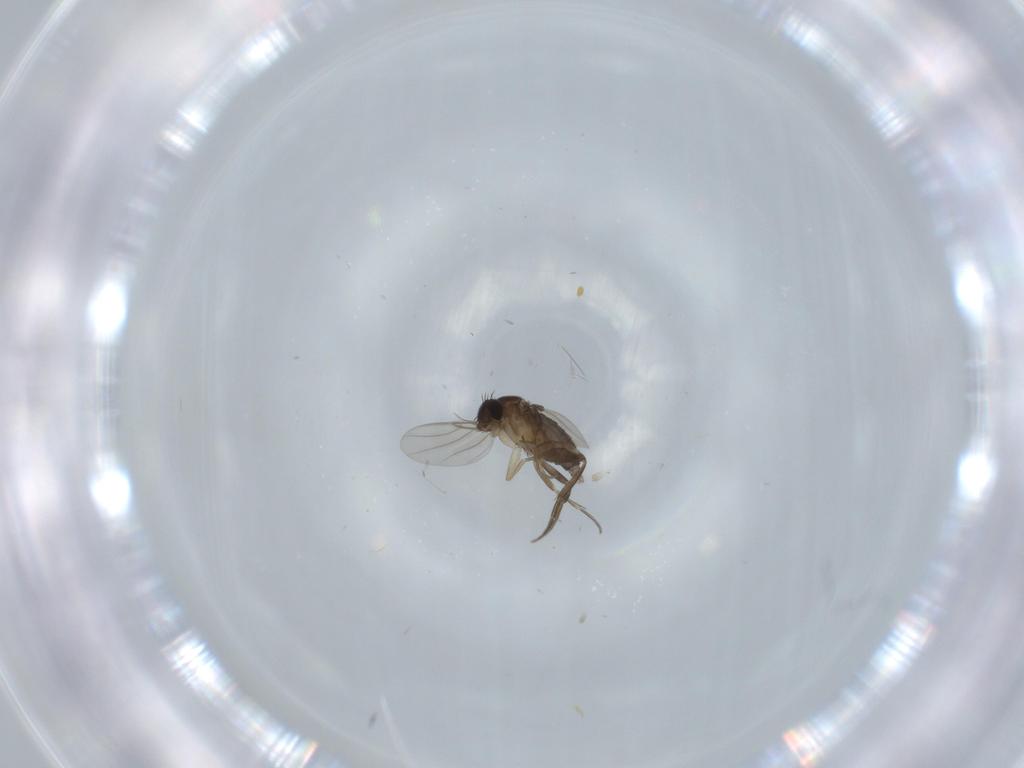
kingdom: Animalia
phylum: Arthropoda
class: Insecta
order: Diptera
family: Phoridae
